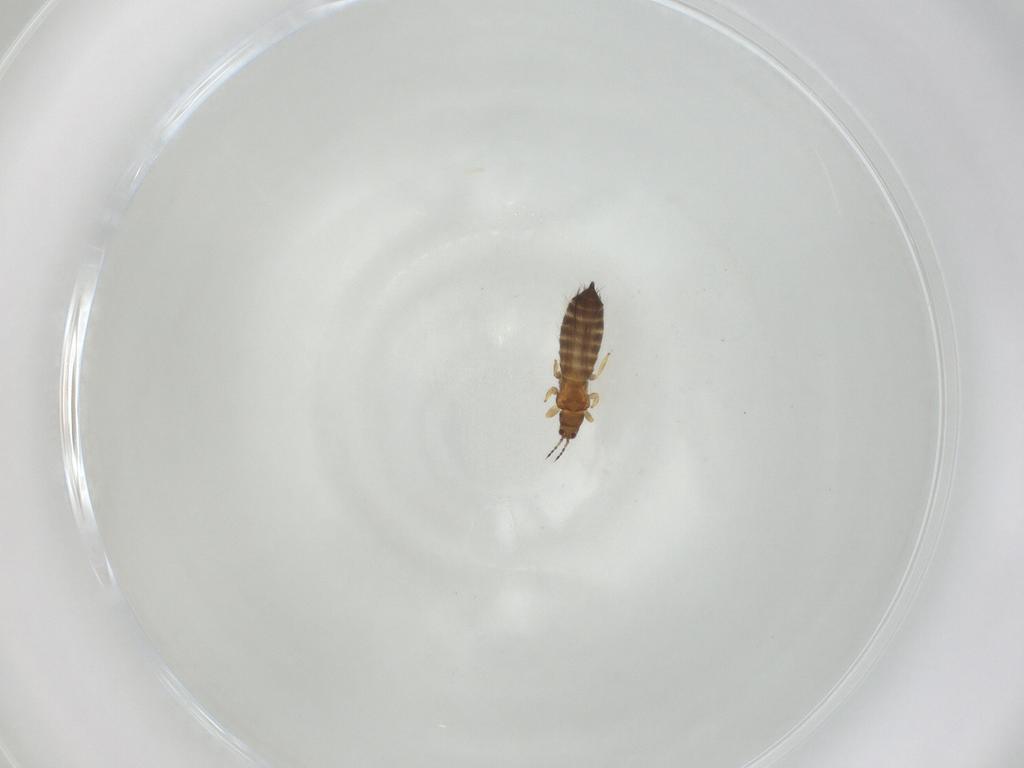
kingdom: Animalia
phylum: Arthropoda
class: Insecta
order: Thysanoptera
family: Thripidae
